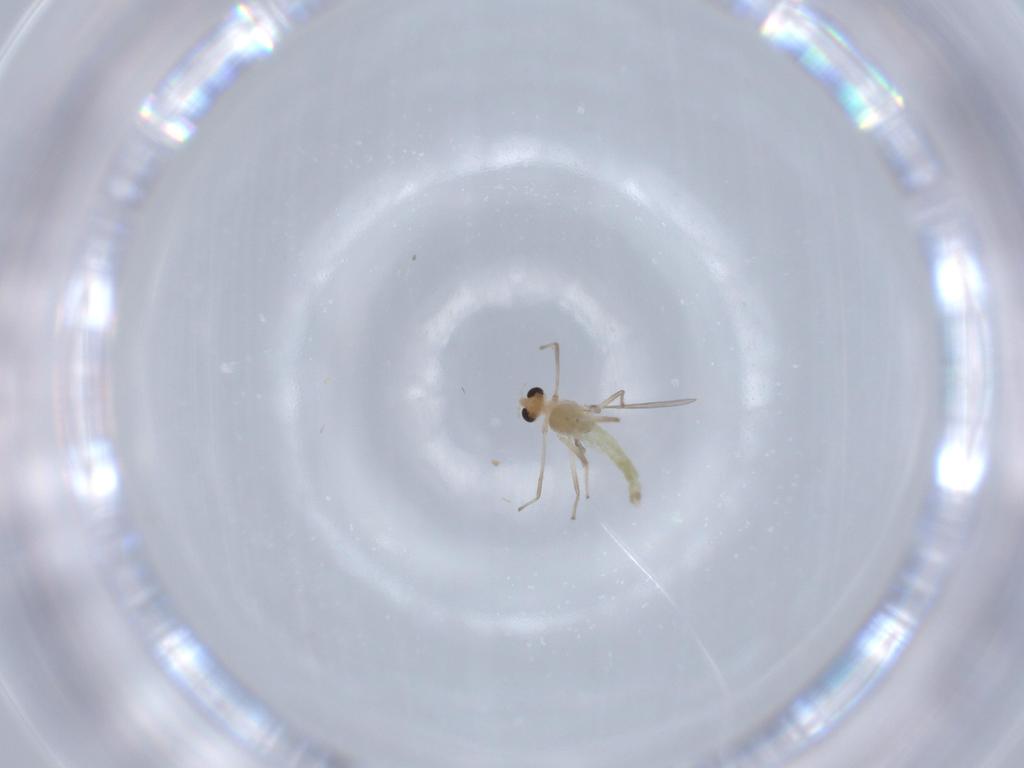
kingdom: Animalia
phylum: Arthropoda
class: Insecta
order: Diptera
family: Chironomidae
